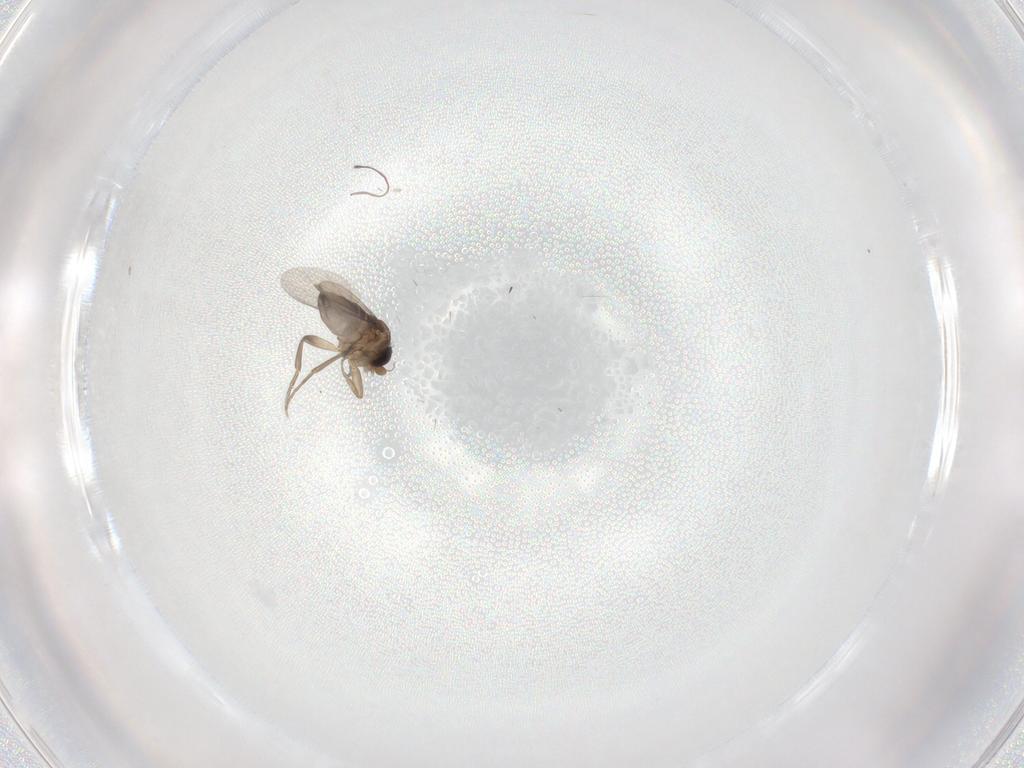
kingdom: Animalia
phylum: Arthropoda
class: Insecta
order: Diptera
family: Phoridae
